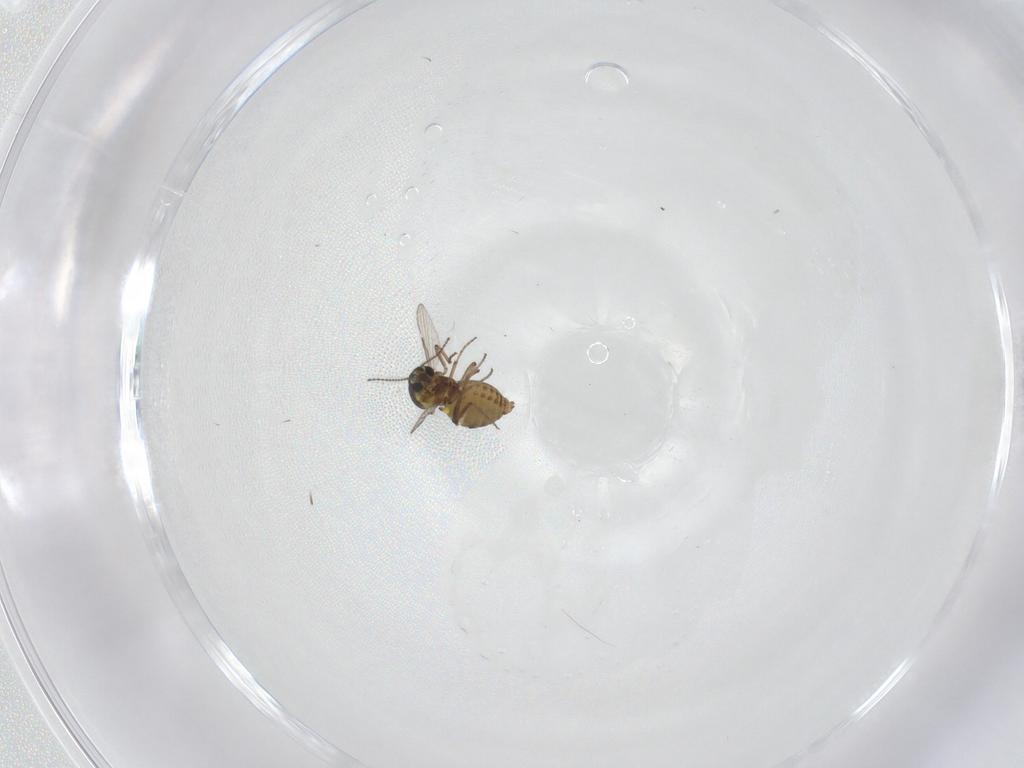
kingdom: Animalia
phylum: Arthropoda
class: Insecta
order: Diptera
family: Ceratopogonidae
